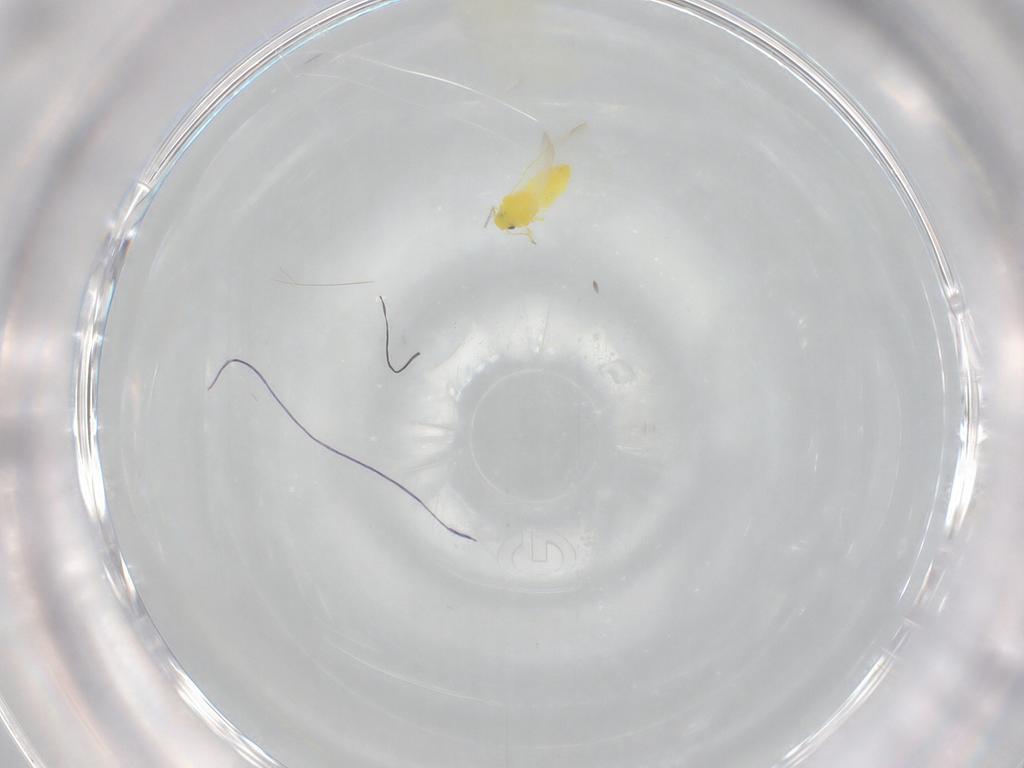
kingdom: Animalia
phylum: Arthropoda
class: Insecta
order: Hemiptera
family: Aleyrodidae
